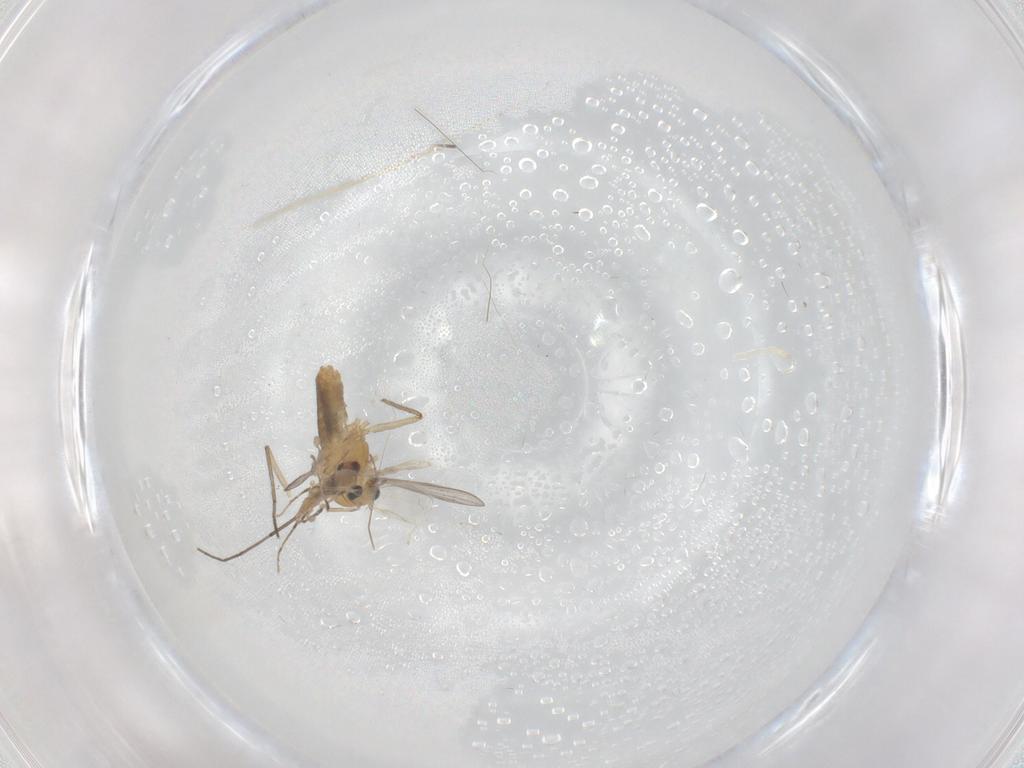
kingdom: Animalia
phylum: Arthropoda
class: Insecta
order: Diptera
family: Chironomidae
